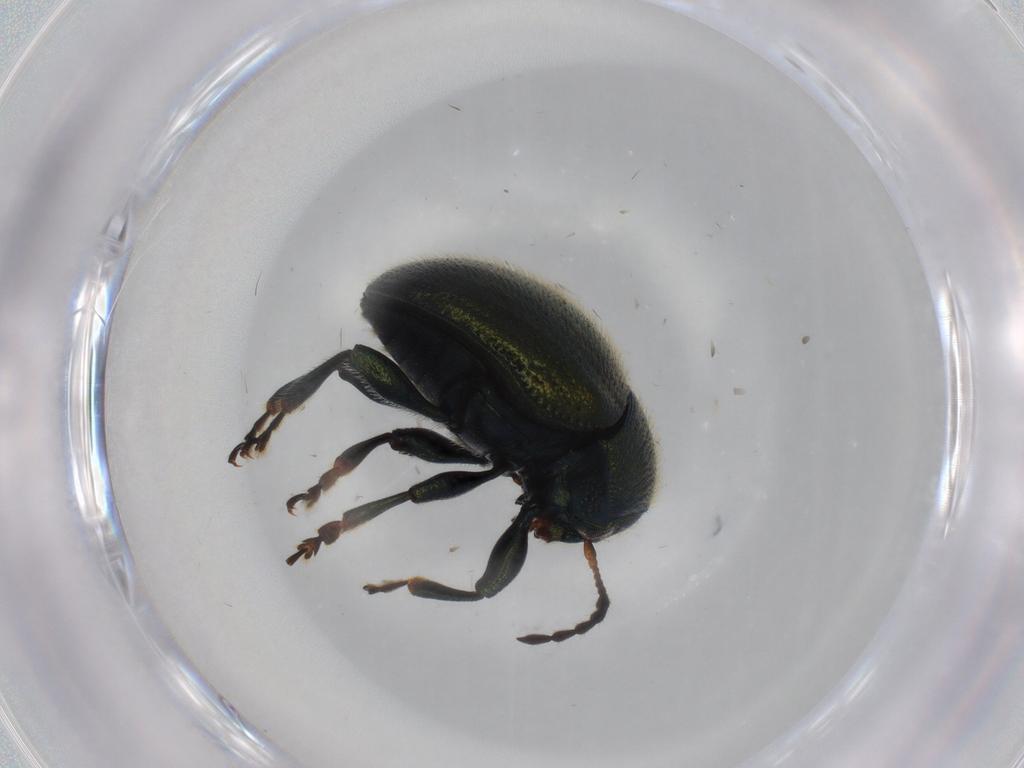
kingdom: Animalia
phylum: Arthropoda
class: Insecta
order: Coleoptera
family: Chrysomelidae
